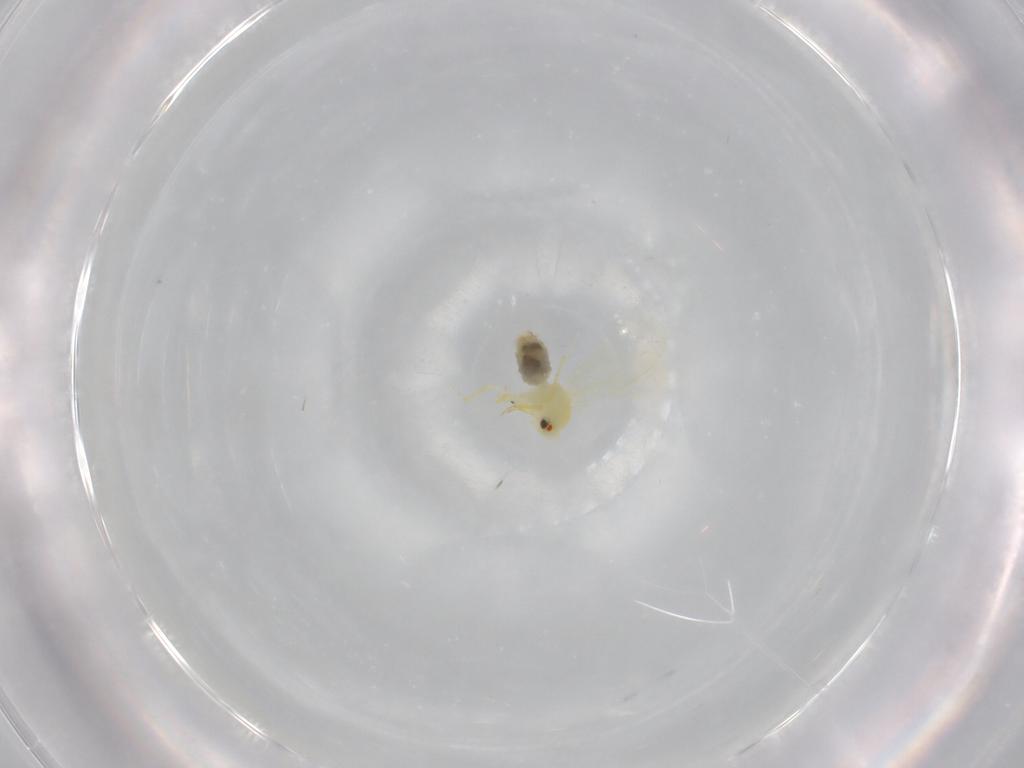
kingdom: Animalia
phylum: Arthropoda
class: Insecta
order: Hemiptera
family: Aleyrodidae
